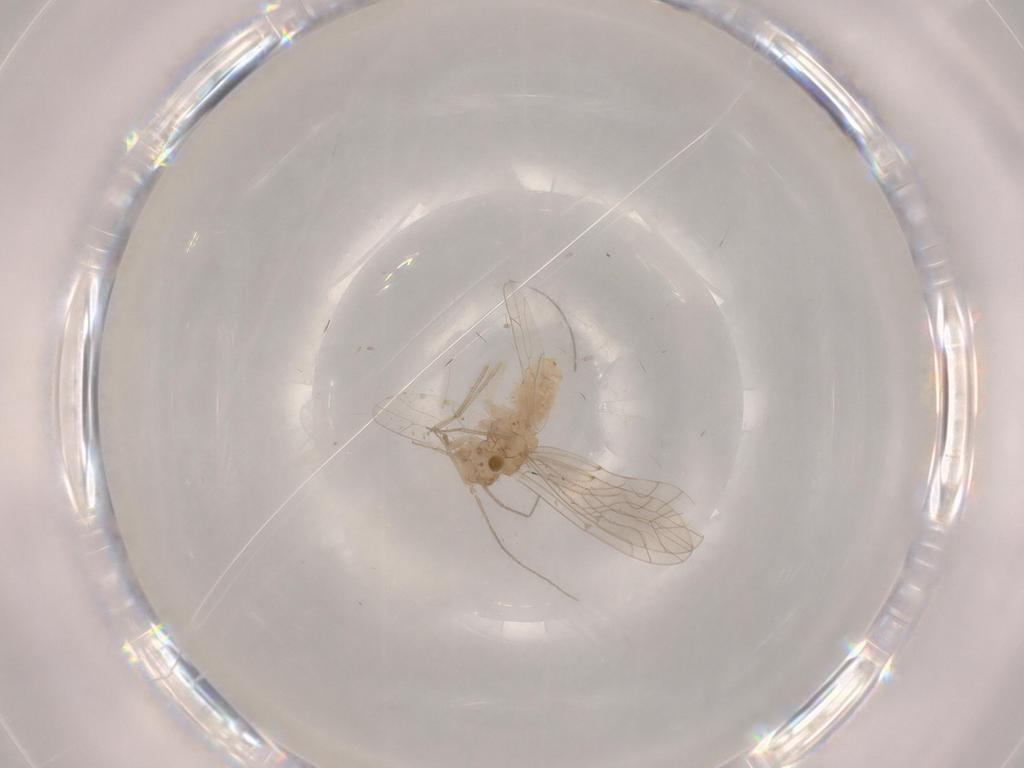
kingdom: Animalia
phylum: Arthropoda
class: Insecta
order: Psocodea
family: Lachesillidae
